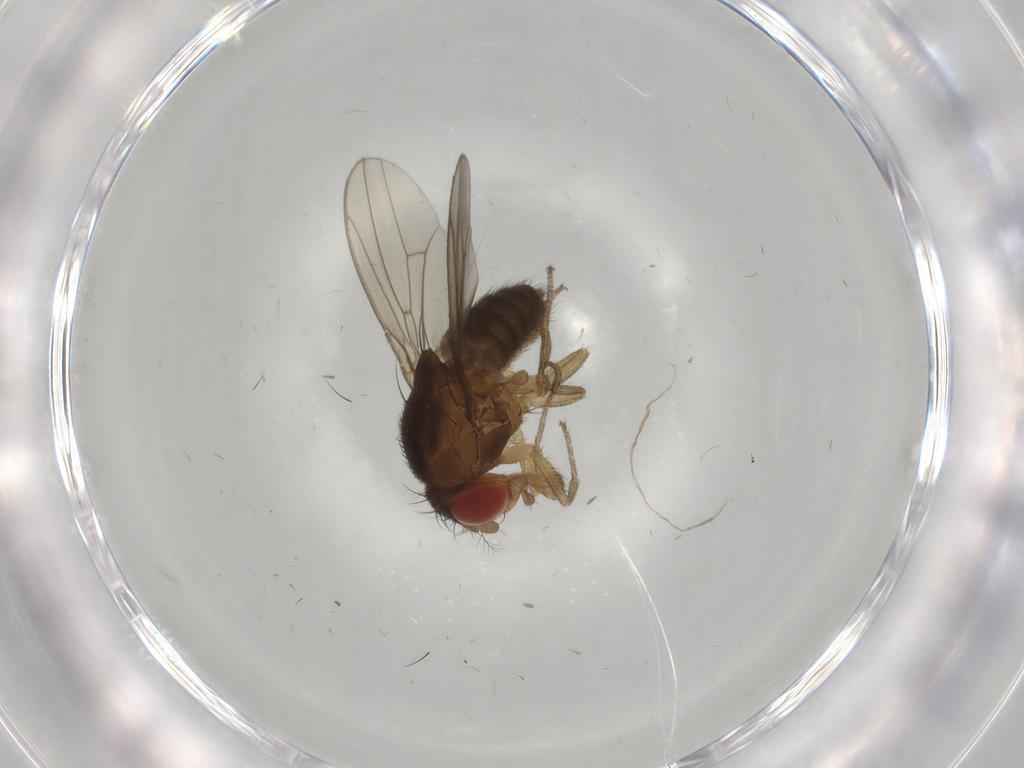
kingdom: Animalia
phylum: Arthropoda
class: Insecta
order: Diptera
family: Drosophilidae
